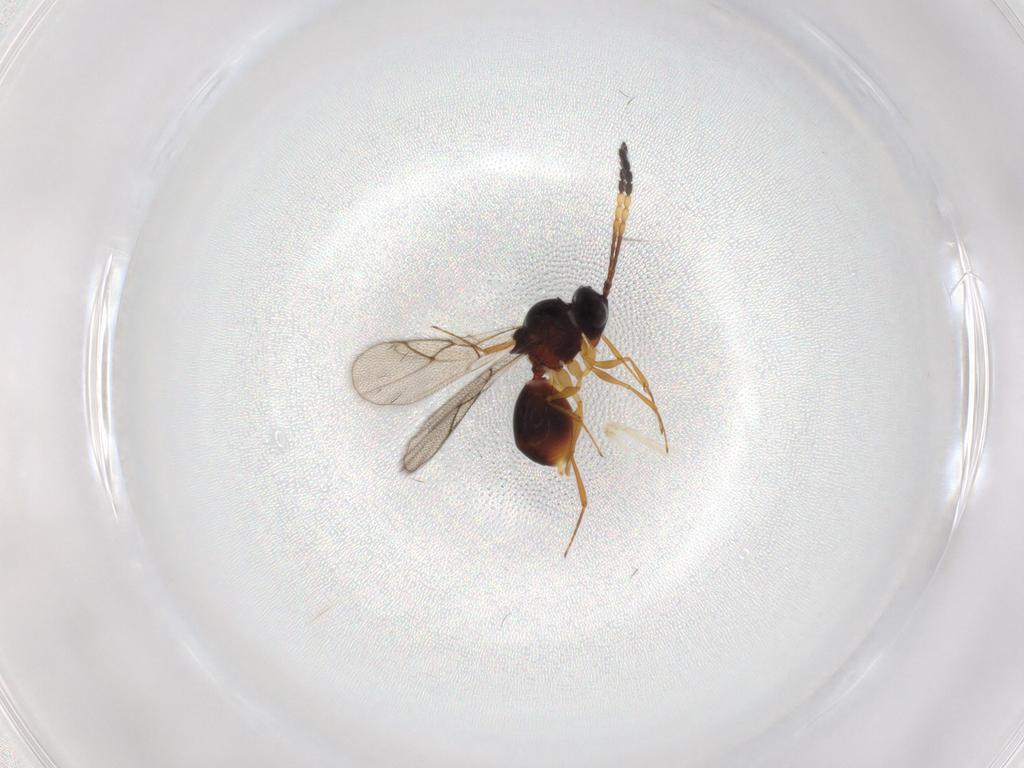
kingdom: Animalia
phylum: Arthropoda
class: Insecta
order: Hymenoptera
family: Figitidae
